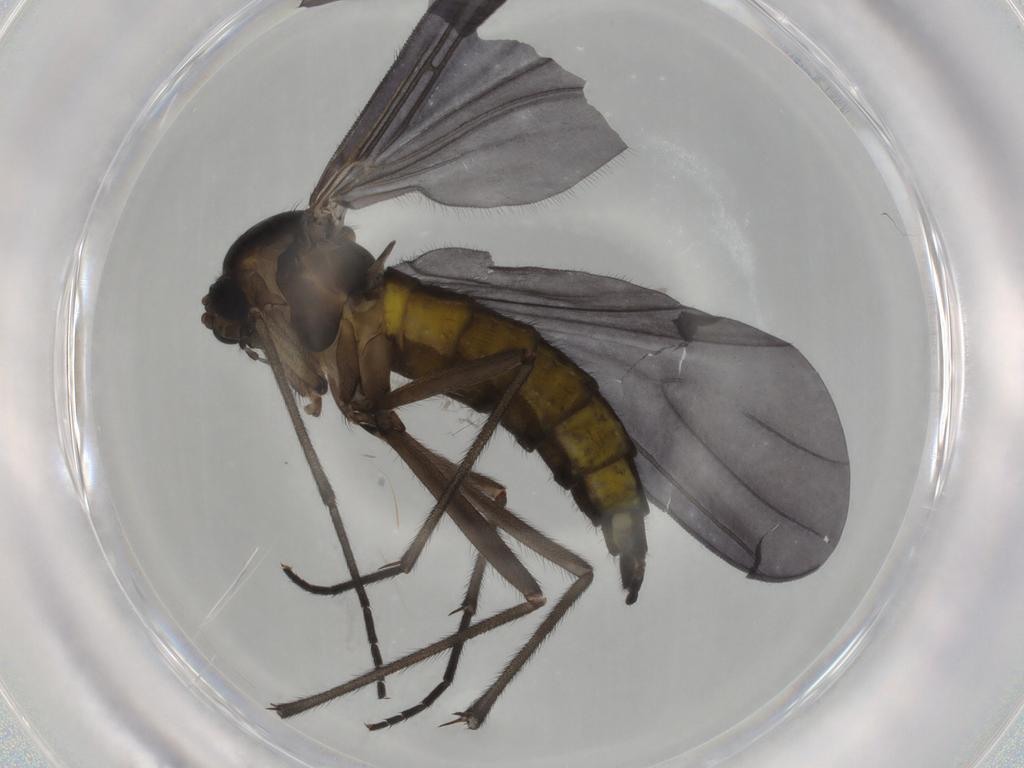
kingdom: Animalia
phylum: Arthropoda
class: Insecta
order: Diptera
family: Sciaridae
